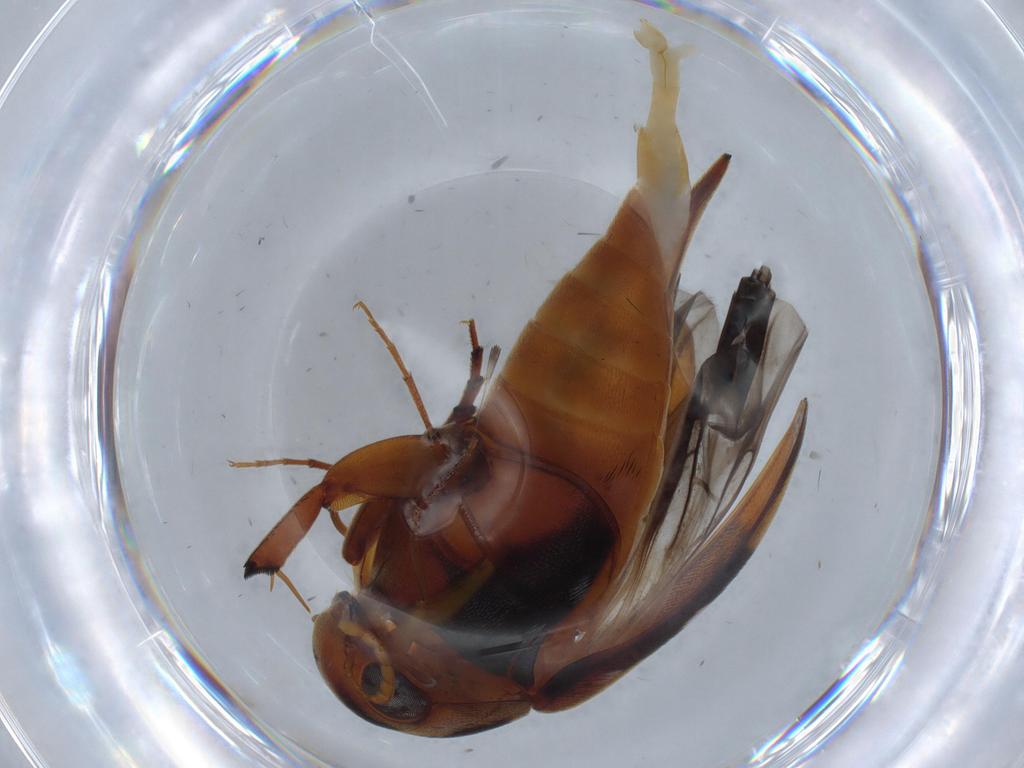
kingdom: Animalia
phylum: Arthropoda
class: Insecta
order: Coleoptera
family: Mordellidae
